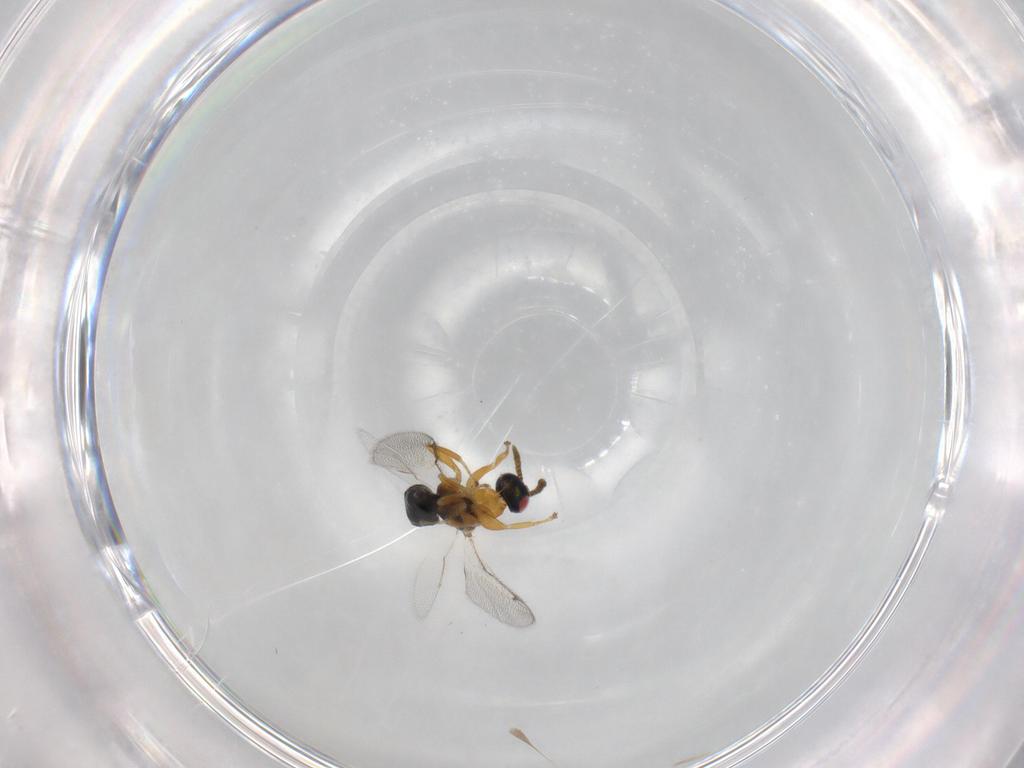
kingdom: Animalia
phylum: Arthropoda
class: Insecta
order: Hymenoptera
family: Torymidae
